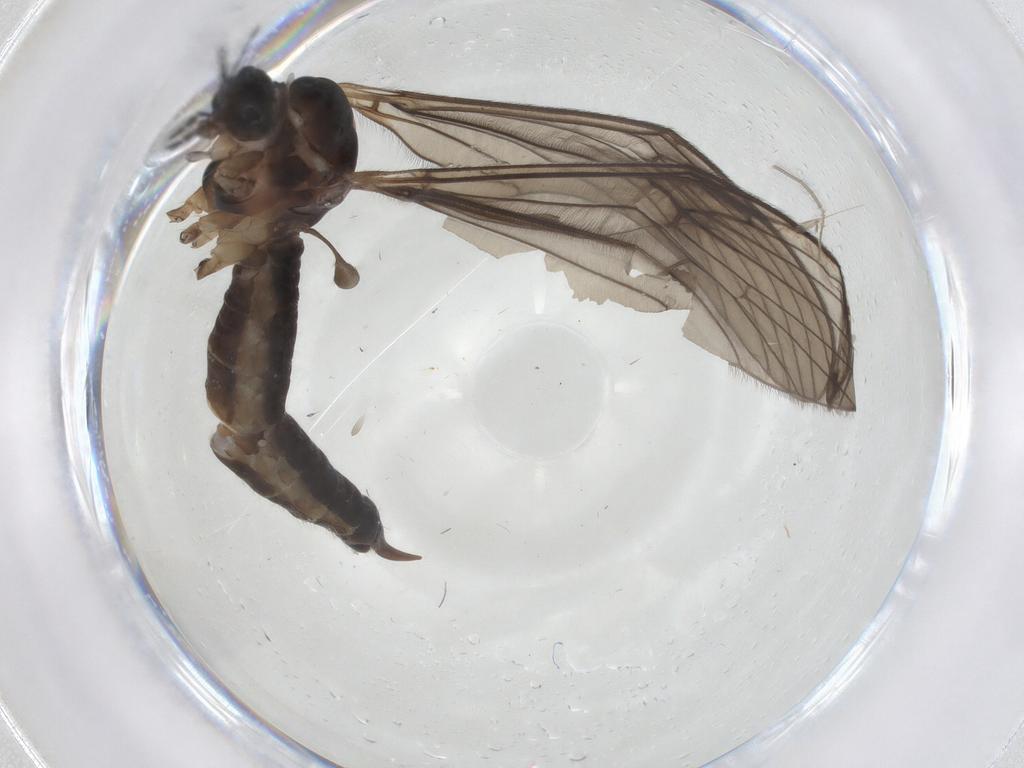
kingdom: Animalia
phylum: Arthropoda
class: Insecta
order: Diptera
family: Limoniidae
